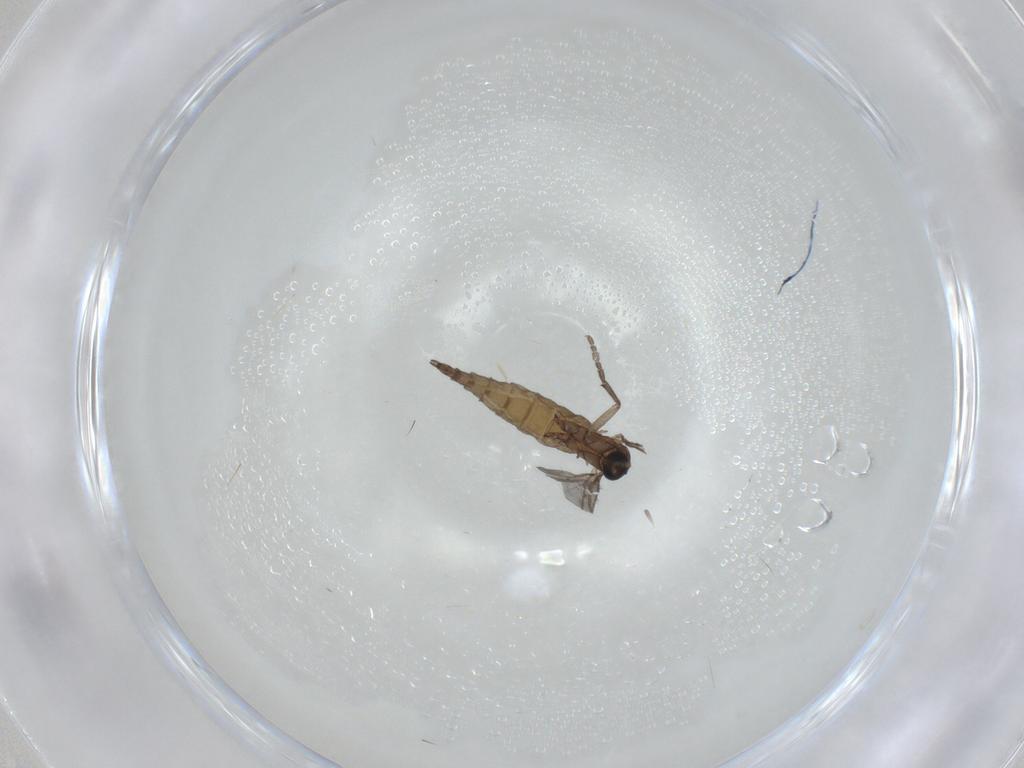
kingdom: Animalia
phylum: Arthropoda
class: Insecta
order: Diptera
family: Sciaridae
